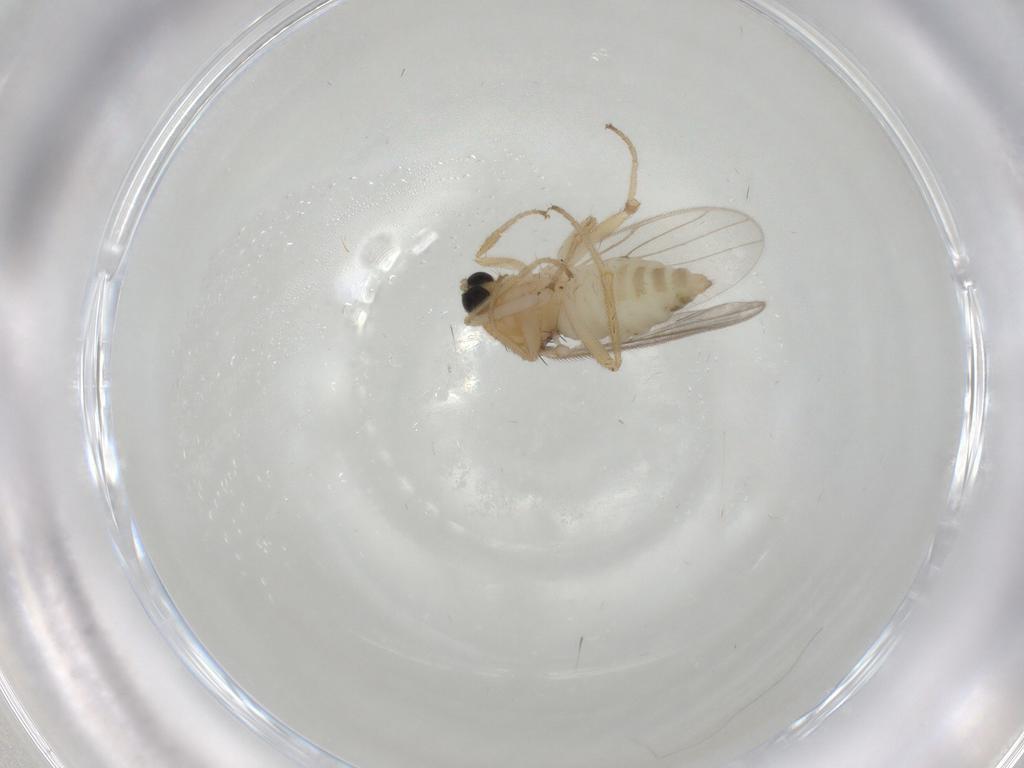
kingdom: Animalia
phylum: Arthropoda
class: Insecta
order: Diptera
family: Hybotidae
